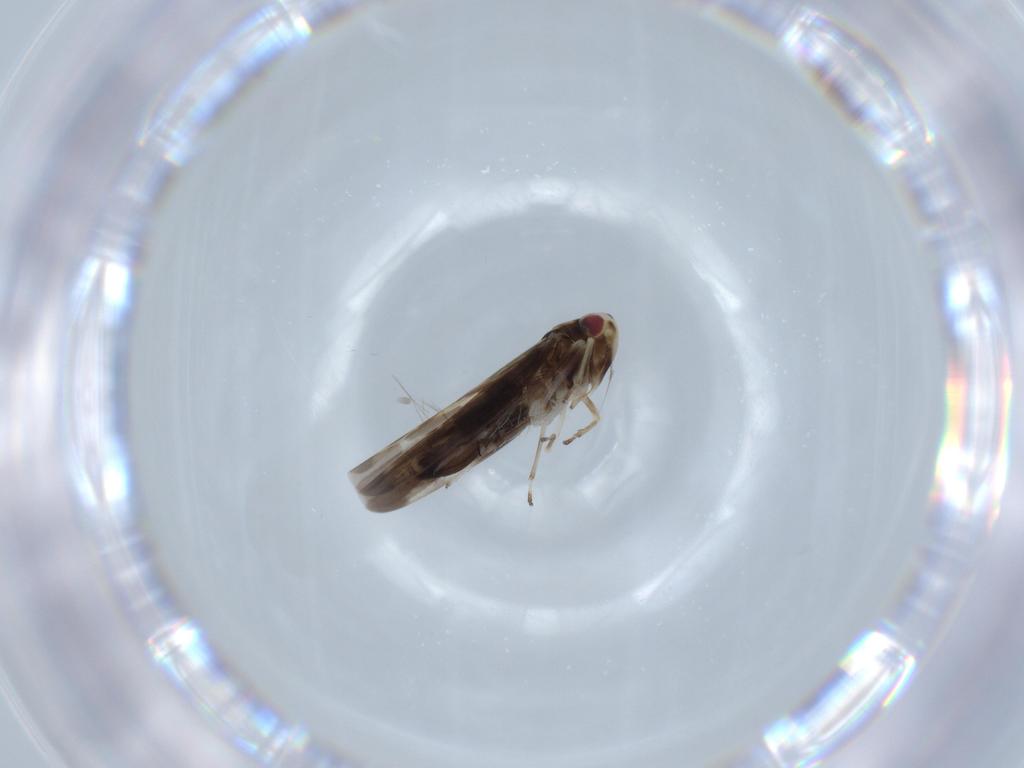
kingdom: Animalia
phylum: Arthropoda
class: Insecta
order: Hemiptera
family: Cicadellidae
